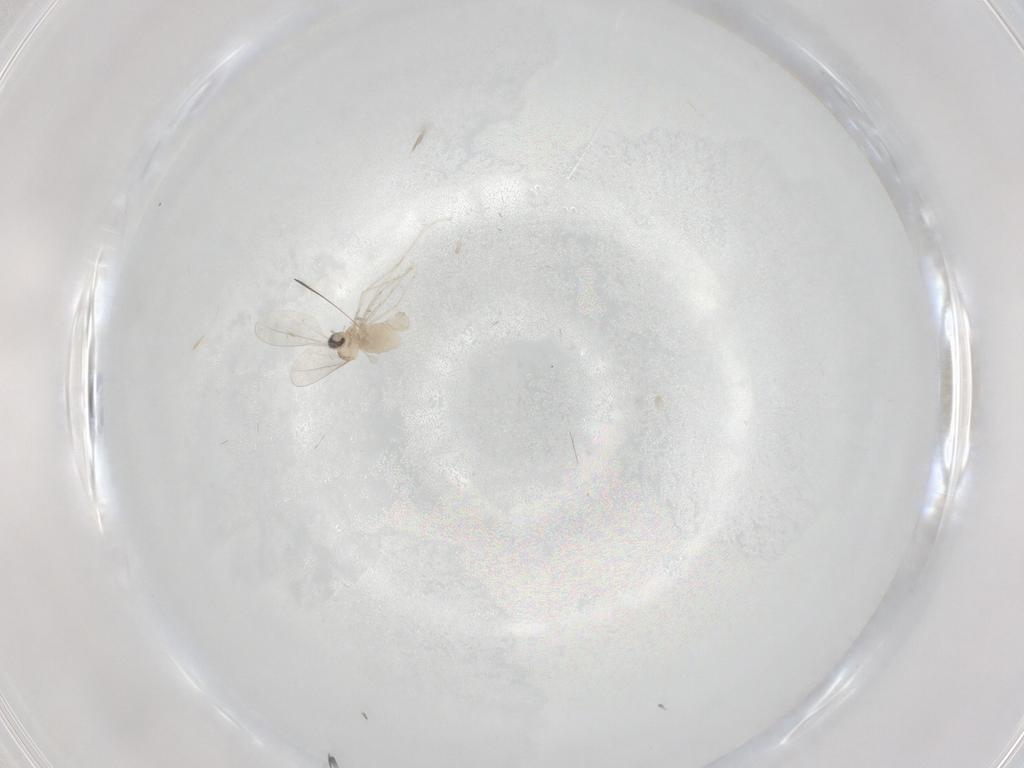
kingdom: Animalia
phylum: Arthropoda
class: Insecta
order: Diptera
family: Cecidomyiidae
